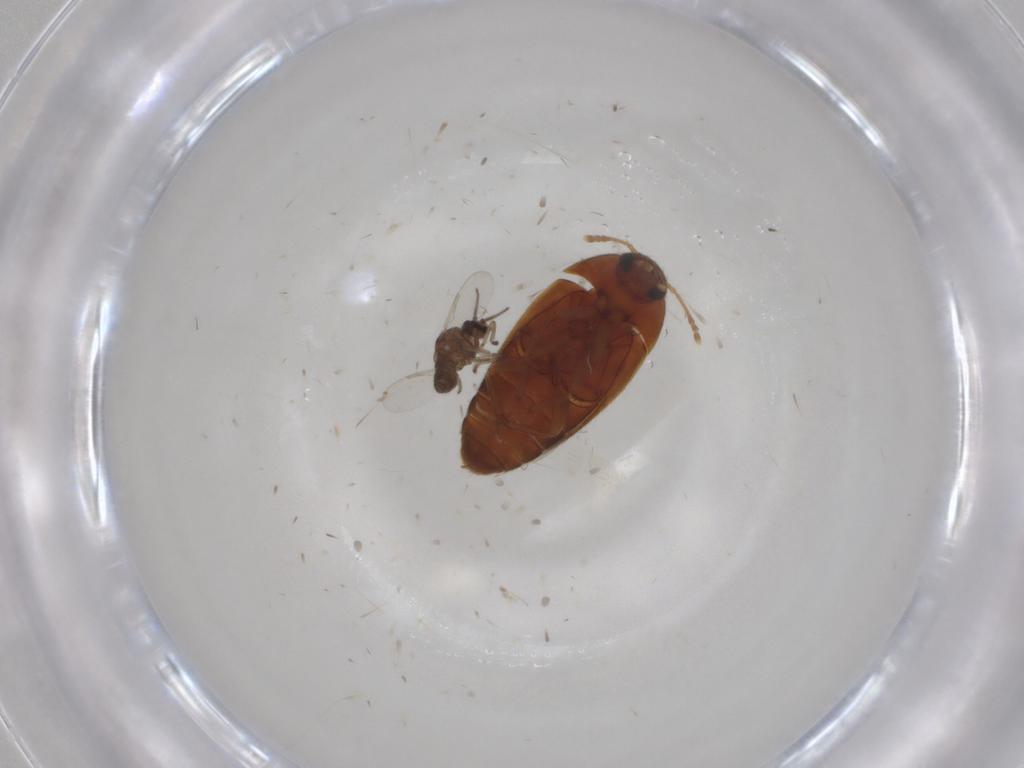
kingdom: Animalia
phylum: Arthropoda
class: Insecta
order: Coleoptera
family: Mycetophagidae
